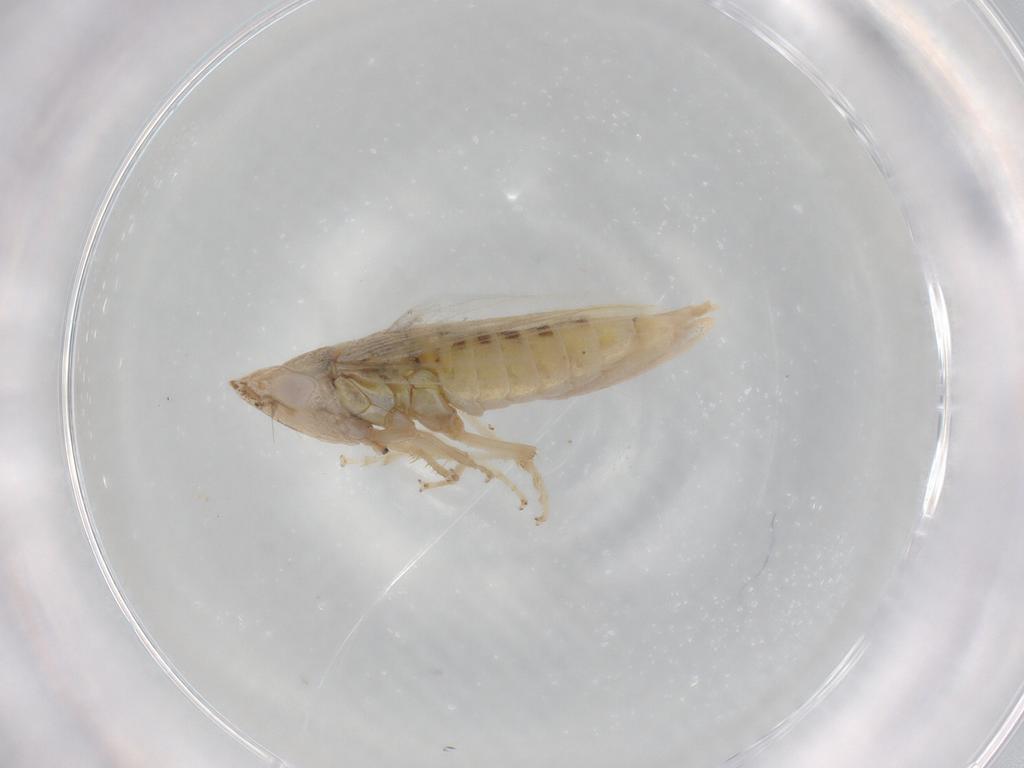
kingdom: Animalia
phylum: Arthropoda
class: Insecta
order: Hemiptera
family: Cicadellidae
